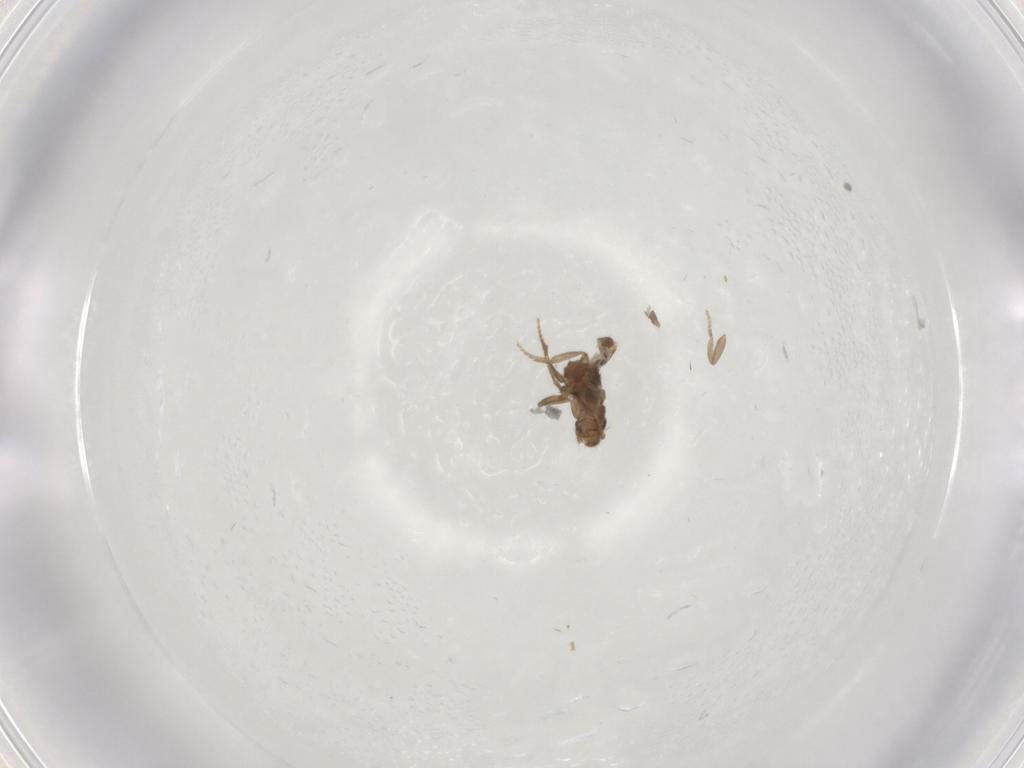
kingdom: Animalia
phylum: Arthropoda
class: Insecta
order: Diptera
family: Phoridae
